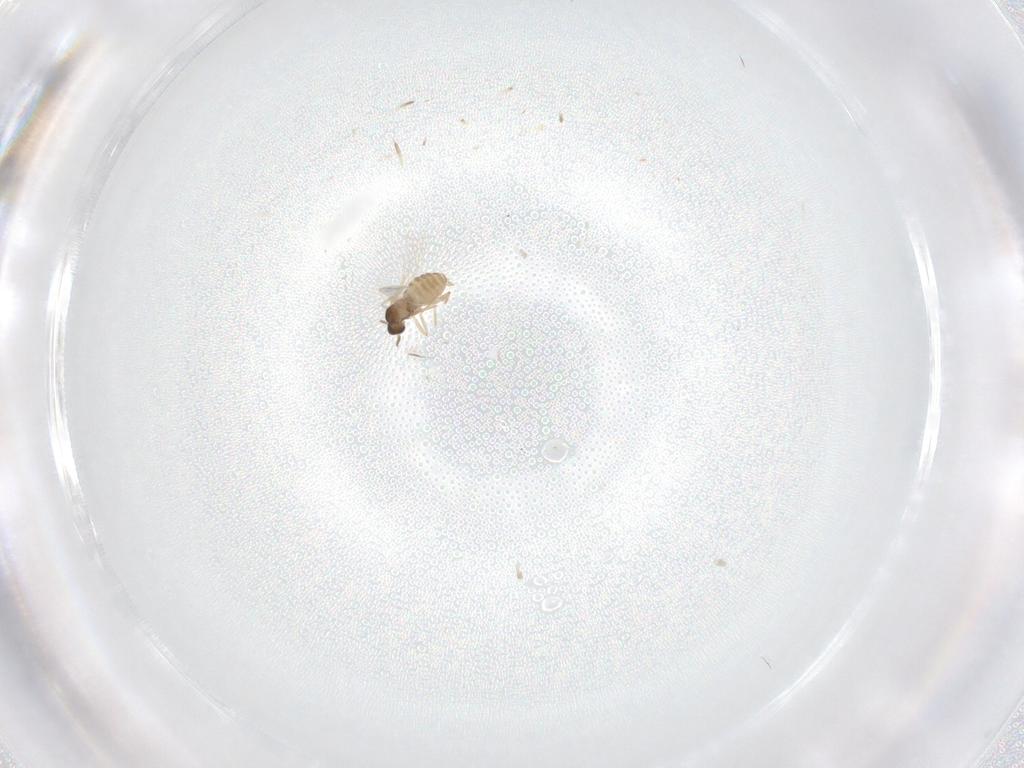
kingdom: Animalia
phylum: Arthropoda
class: Insecta
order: Diptera
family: Cecidomyiidae
